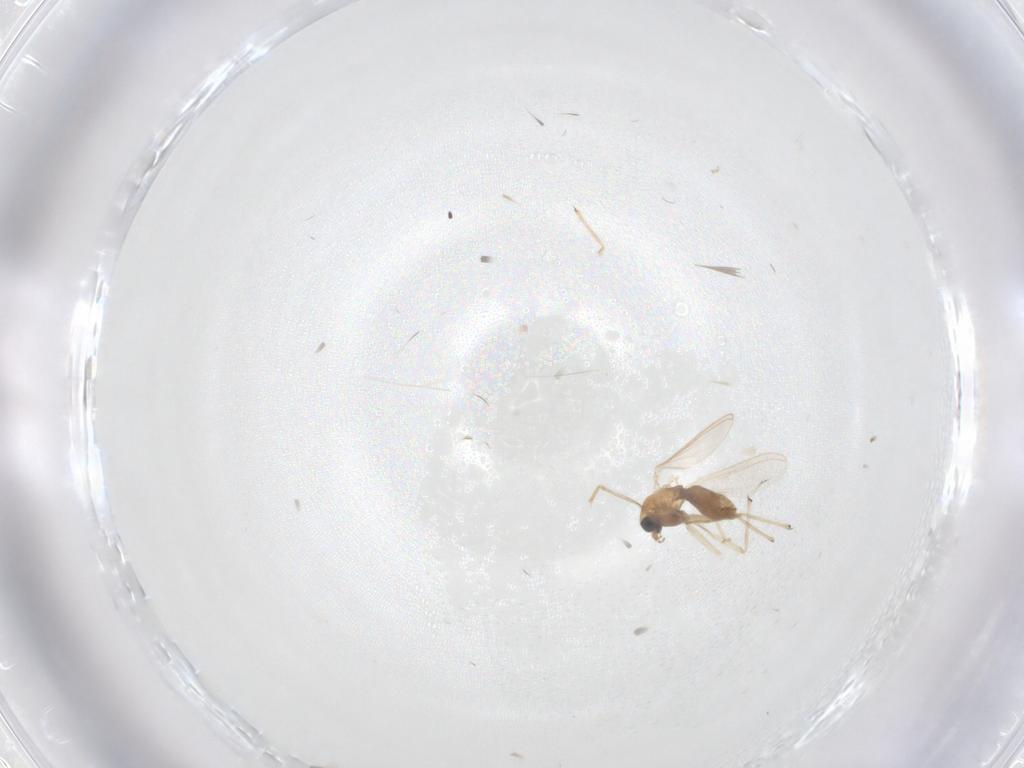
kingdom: Animalia
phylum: Arthropoda
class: Insecta
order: Diptera
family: Chironomidae
